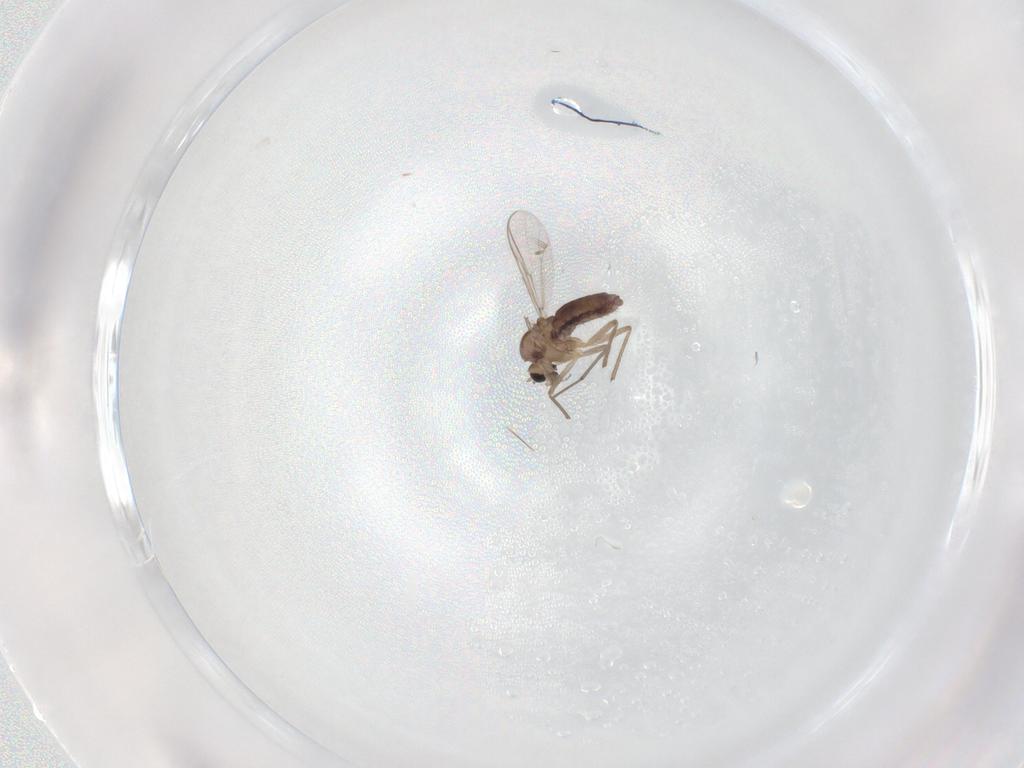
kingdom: Animalia
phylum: Arthropoda
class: Insecta
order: Diptera
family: Chironomidae
